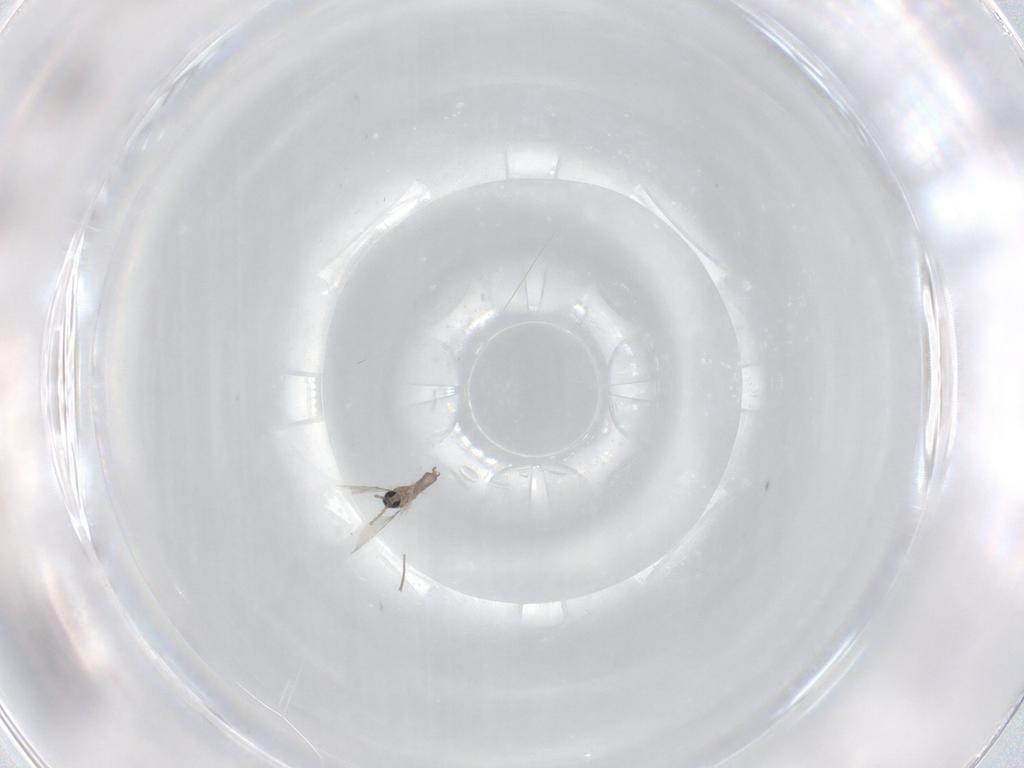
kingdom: Animalia
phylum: Arthropoda
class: Insecta
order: Diptera
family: Cecidomyiidae
